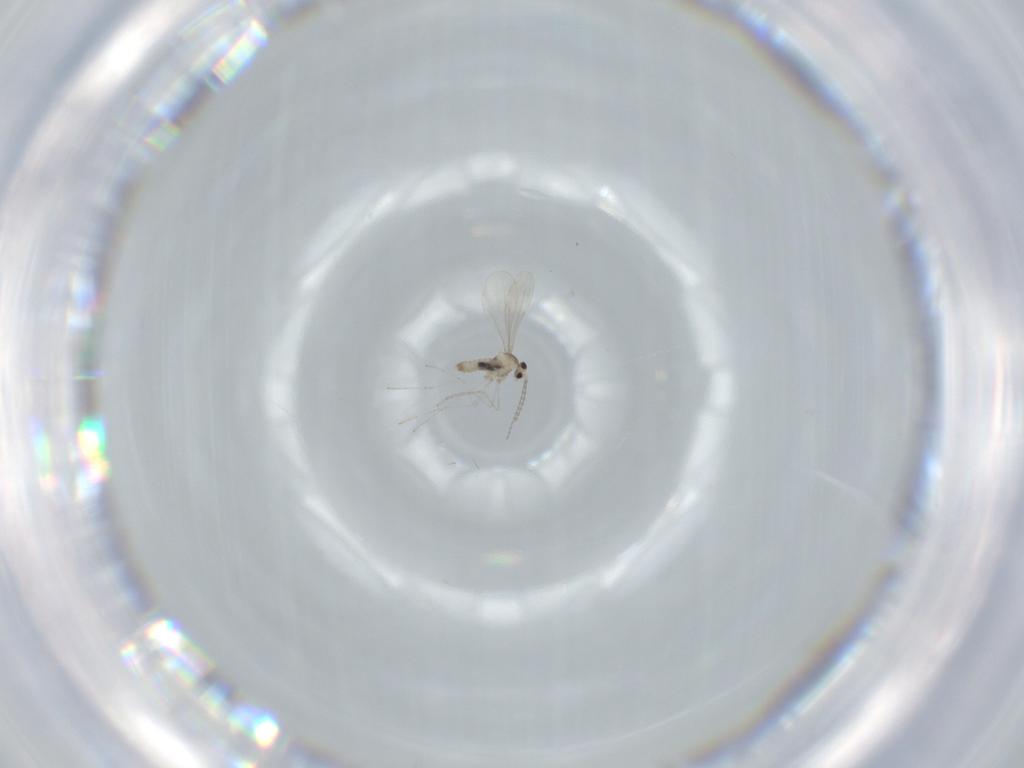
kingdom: Animalia
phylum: Arthropoda
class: Insecta
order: Diptera
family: Cecidomyiidae
